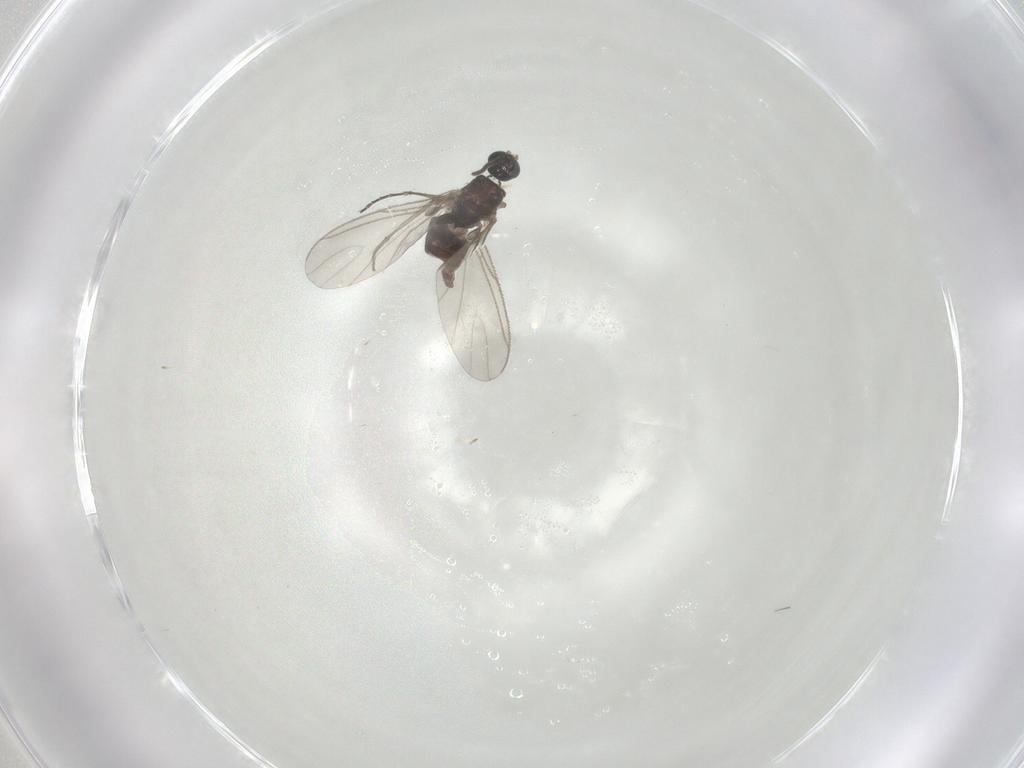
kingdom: Animalia
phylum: Arthropoda
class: Insecta
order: Diptera
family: Sciaridae
